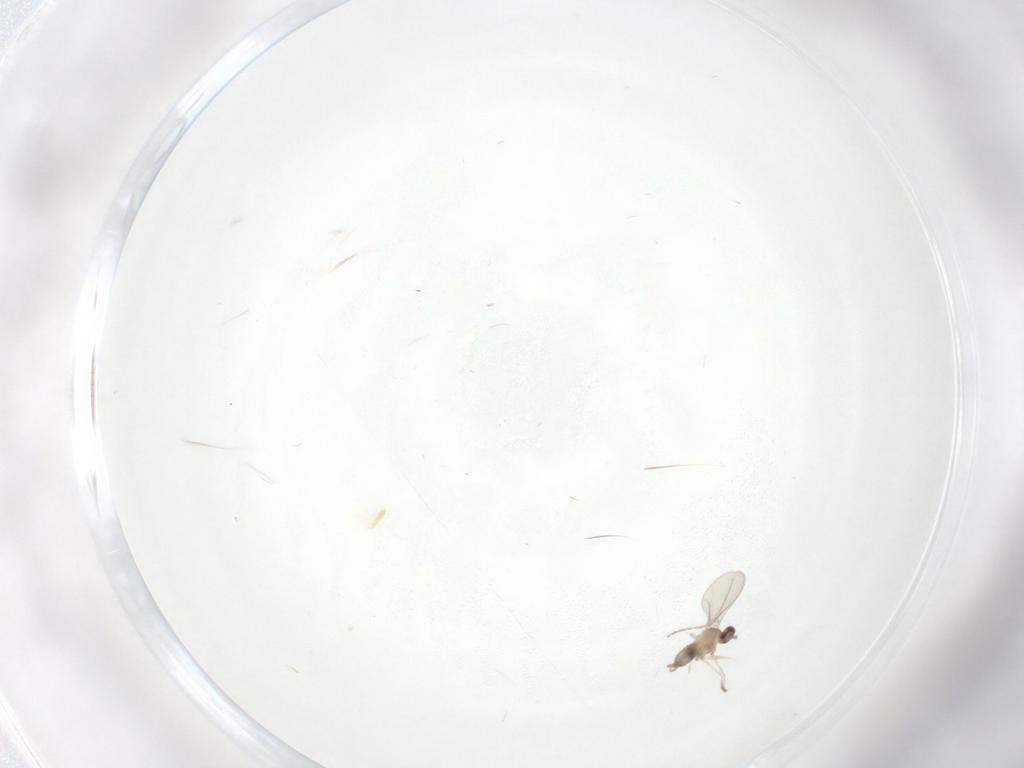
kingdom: Animalia
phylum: Arthropoda
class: Insecta
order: Diptera
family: Cecidomyiidae
